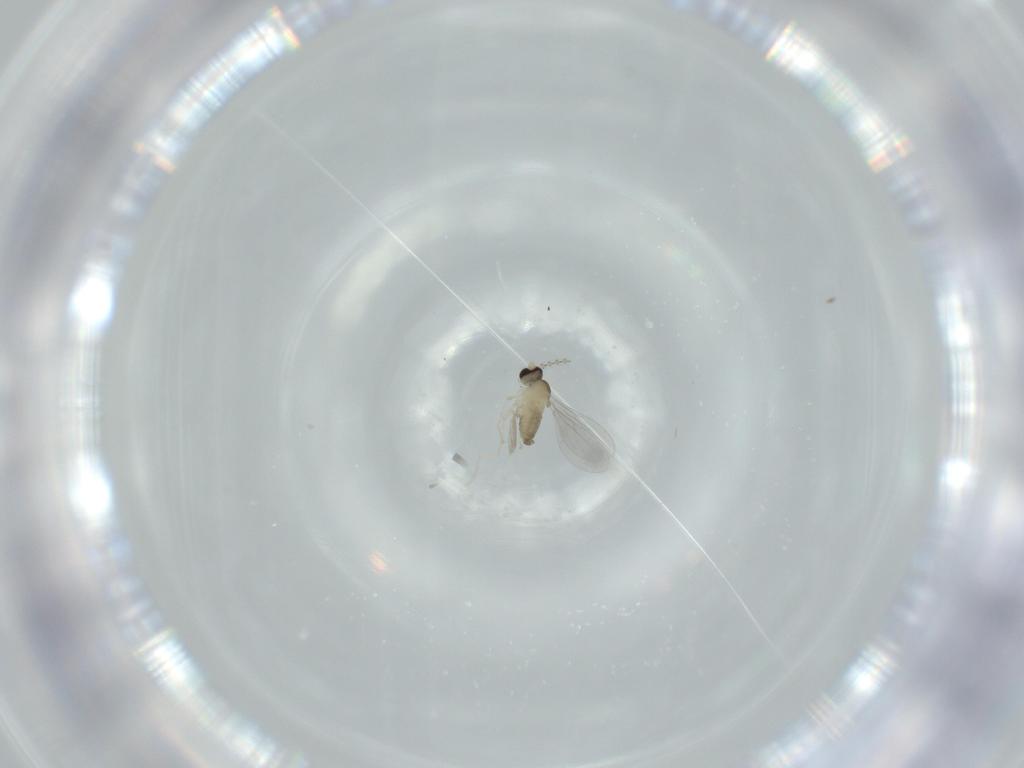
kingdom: Animalia
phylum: Arthropoda
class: Insecta
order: Diptera
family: Cecidomyiidae
